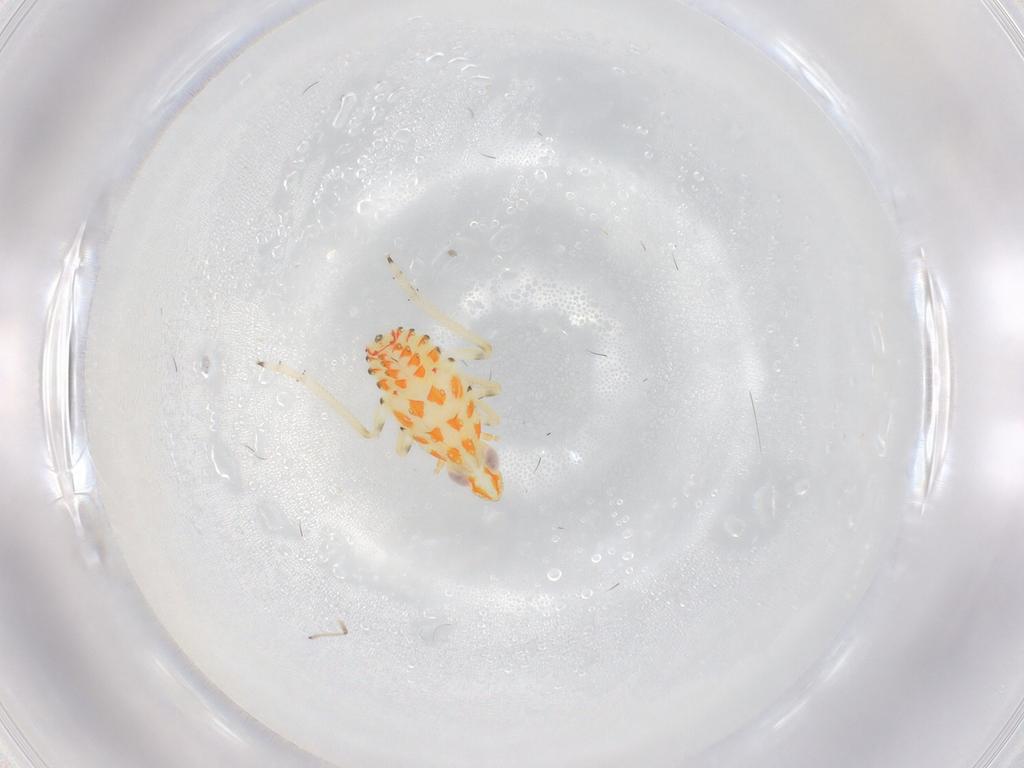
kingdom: Animalia
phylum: Arthropoda
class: Insecta
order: Hemiptera
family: Tropiduchidae
